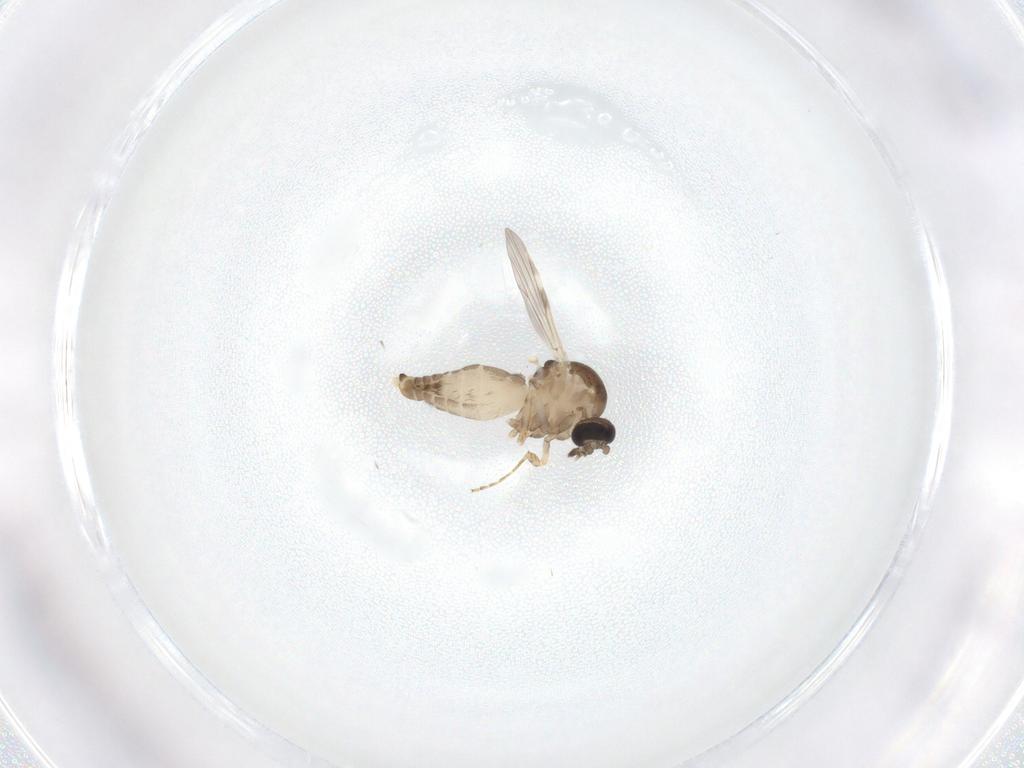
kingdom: Animalia
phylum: Arthropoda
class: Insecta
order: Diptera
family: Ceratopogonidae
